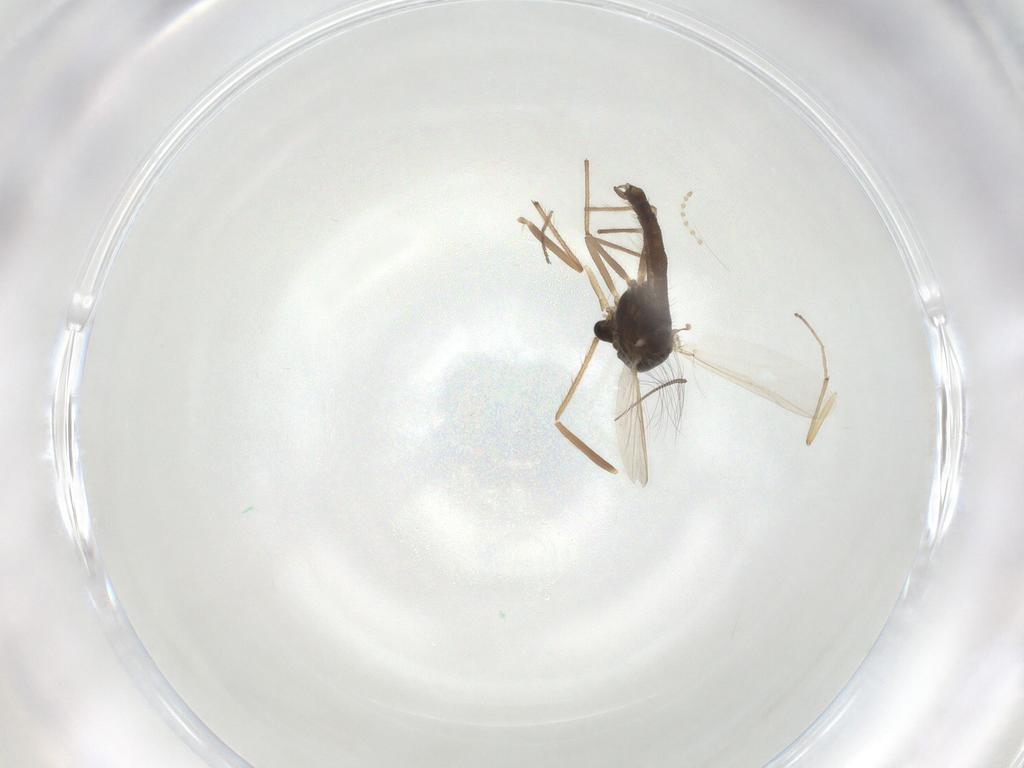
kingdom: Animalia
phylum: Arthropoda
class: Insecta
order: Diptera
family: Chironomidae
